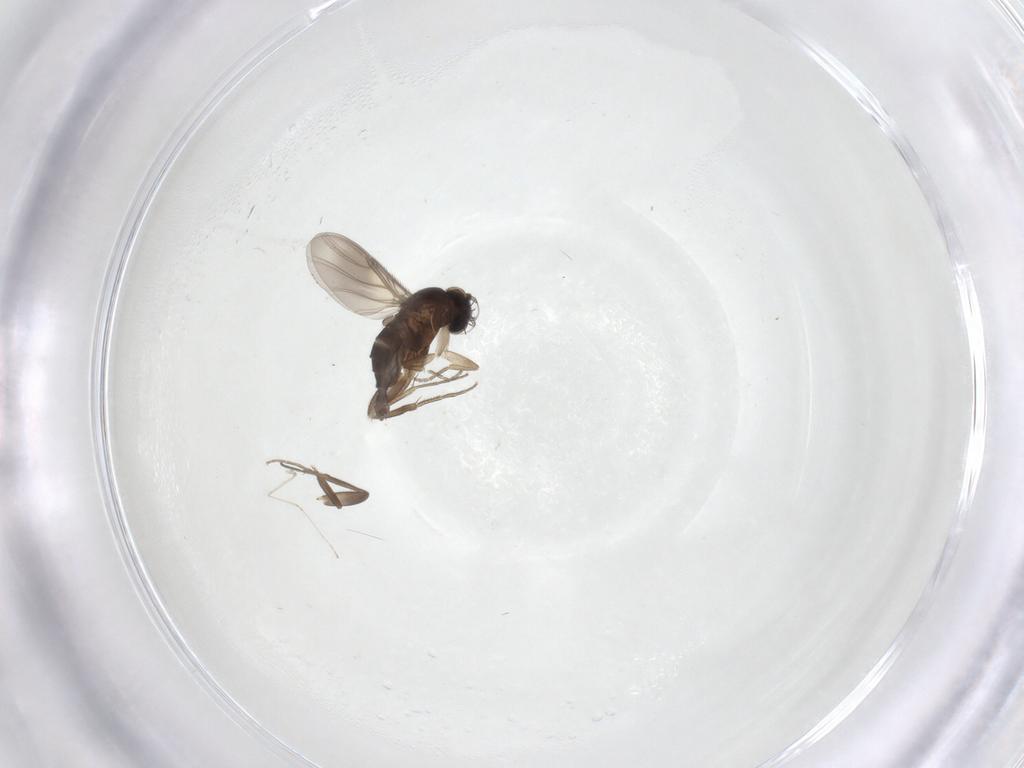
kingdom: Animalia
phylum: Arthropoda
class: Insecta
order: Diptera
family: Phoridae
